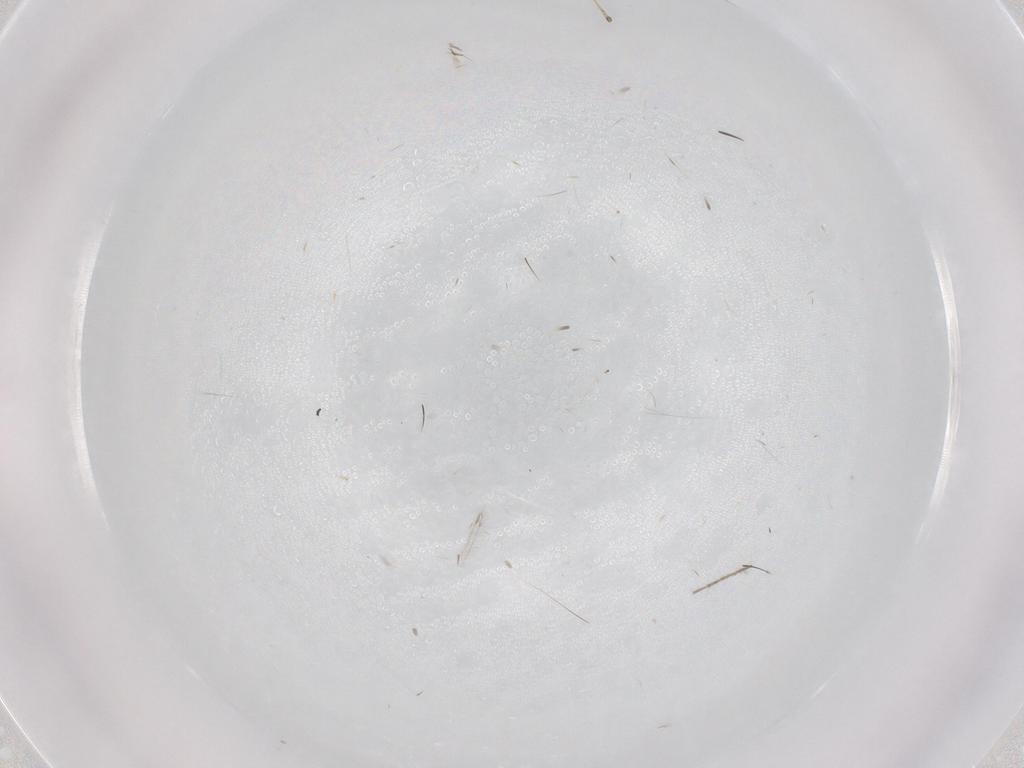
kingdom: Animalia
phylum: Arthropoda
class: Insecta
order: Hymenoptera
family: Mymaridae
